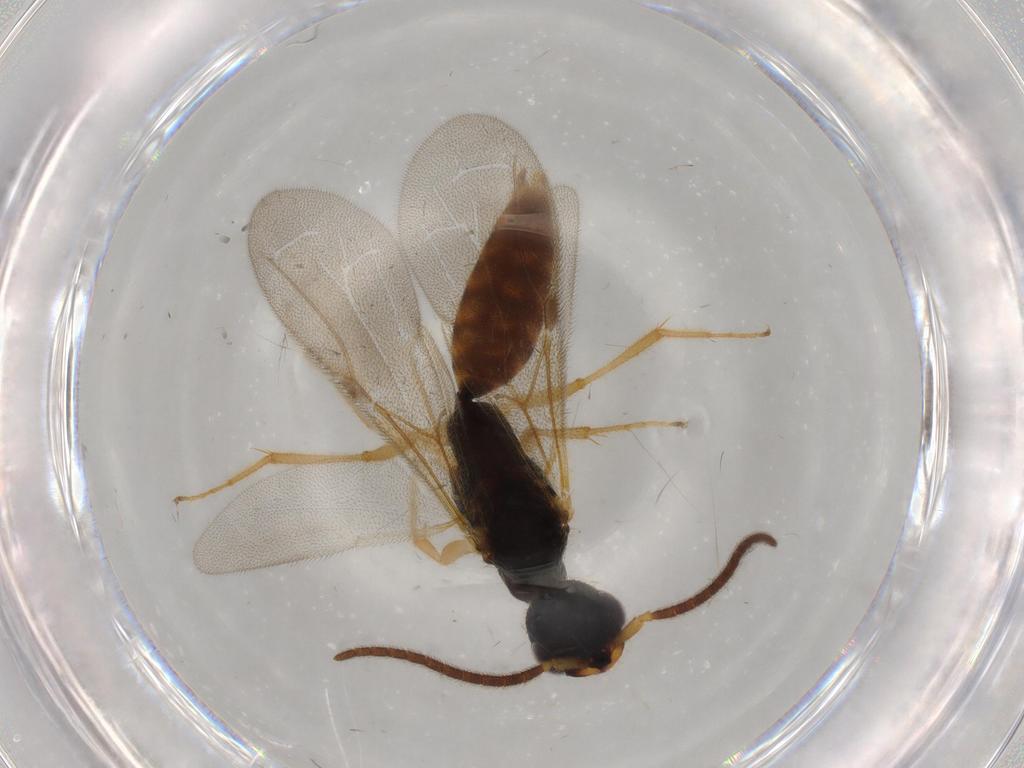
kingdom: Animalia
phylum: Arthropoda
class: Insecta
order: Hymenoptera
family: Bethylidae
